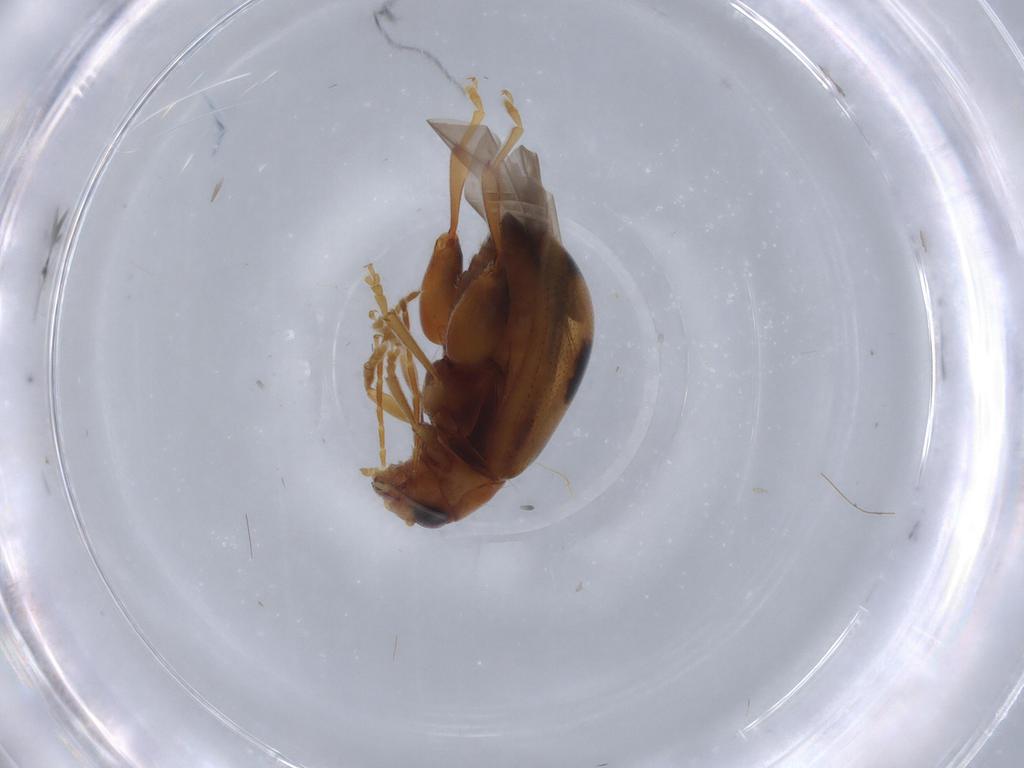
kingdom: Animalia
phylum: Arthropoda
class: Insecta
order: Coleoptera
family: Chrysomelidae
